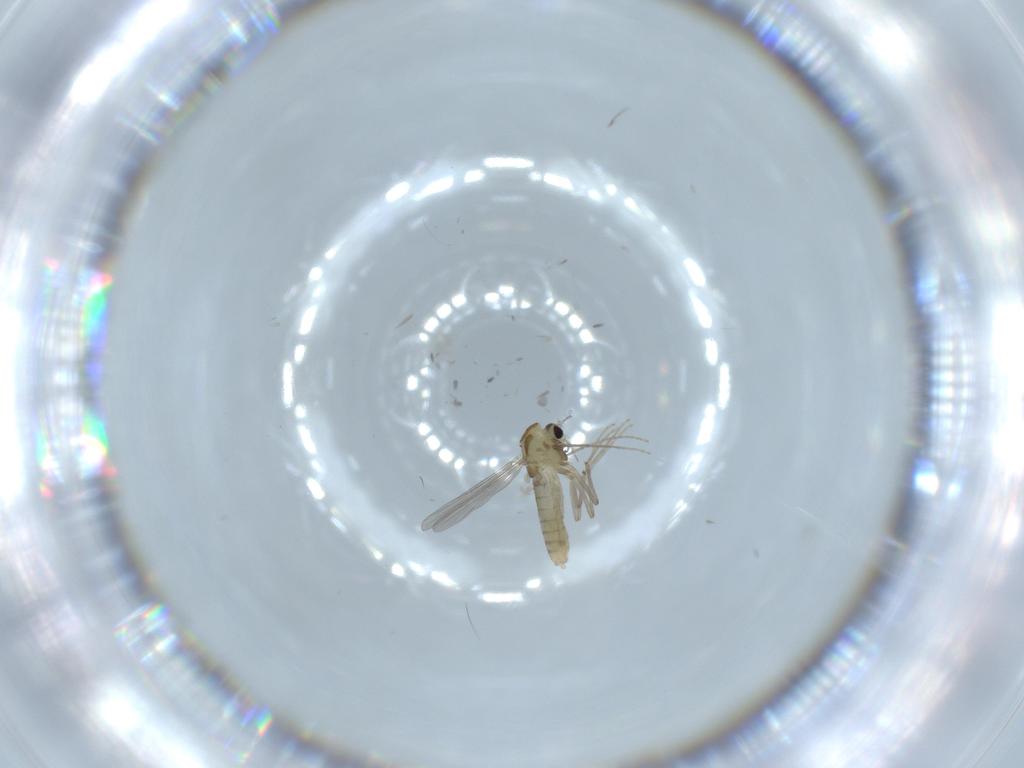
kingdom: Animalia
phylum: Arthropoda
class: Insecta
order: Diptera
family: Chironomidae
